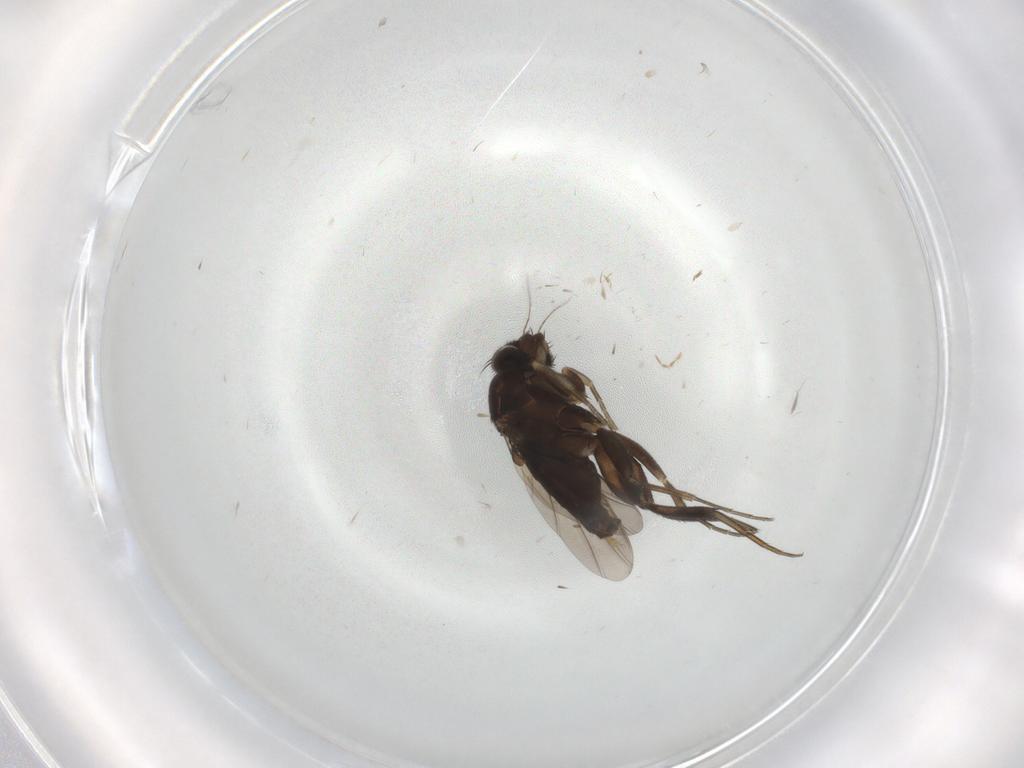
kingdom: Animalia
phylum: Arthropoda
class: Insecta
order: Diptera
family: Phoridae
